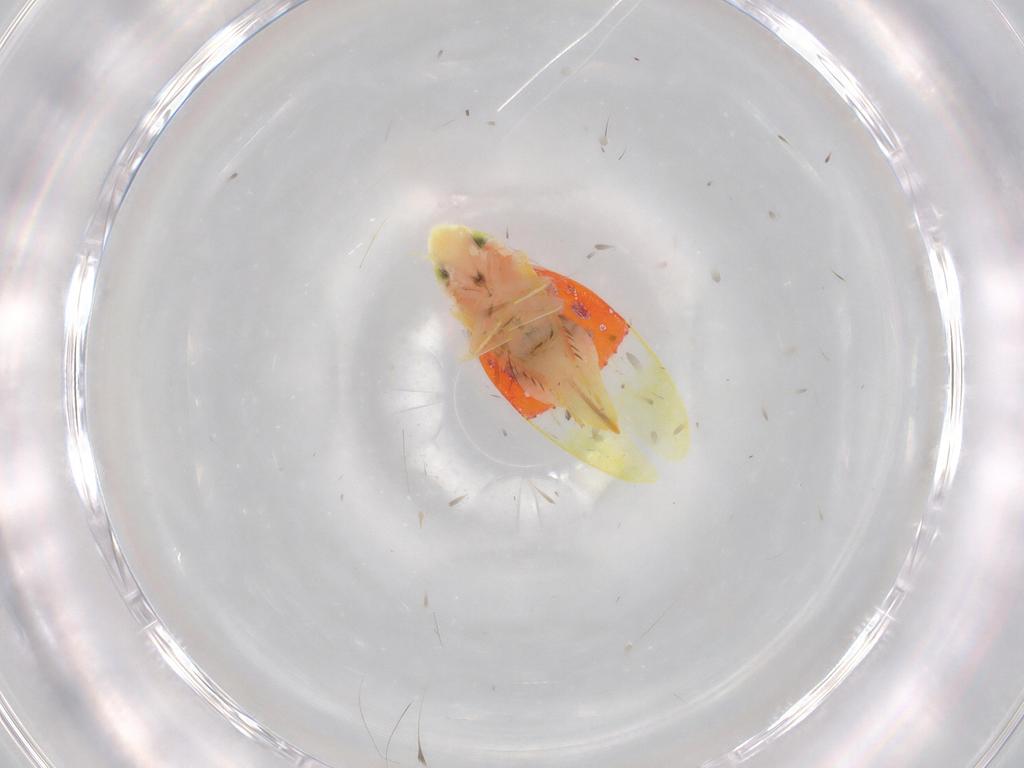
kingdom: Animalia
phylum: Arthropoda
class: Insecta
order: Hemiptera
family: Cicadellidae
